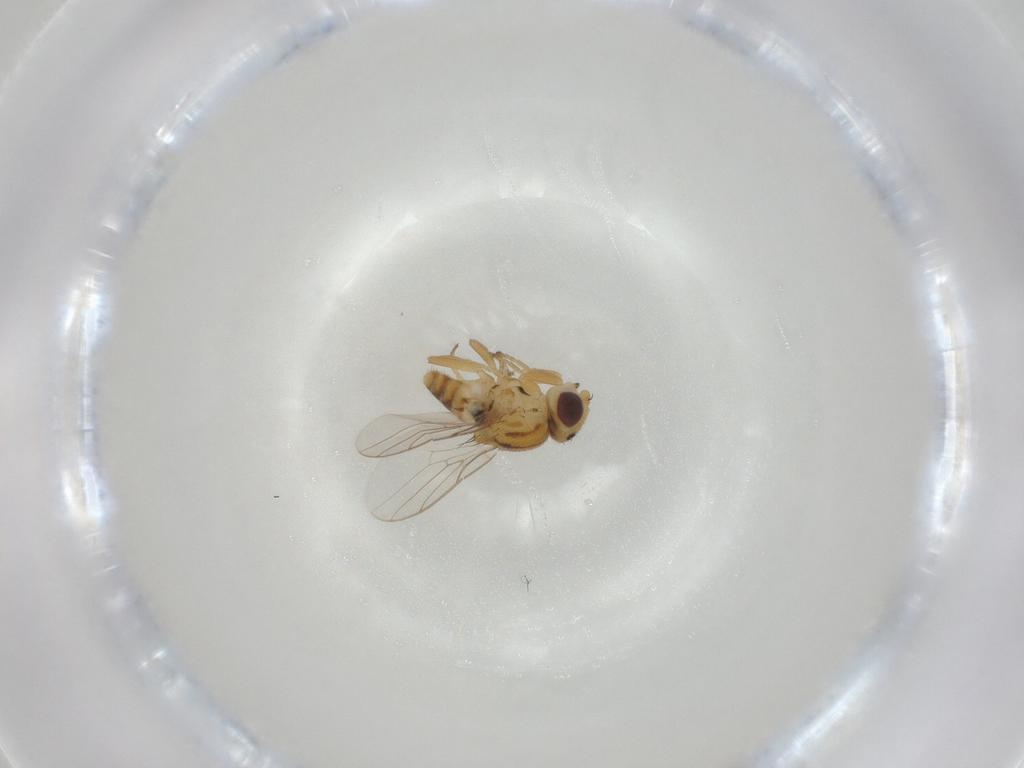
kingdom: Animalia
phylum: Arthropoda
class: Insecta
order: Diptera
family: Chloropidae
